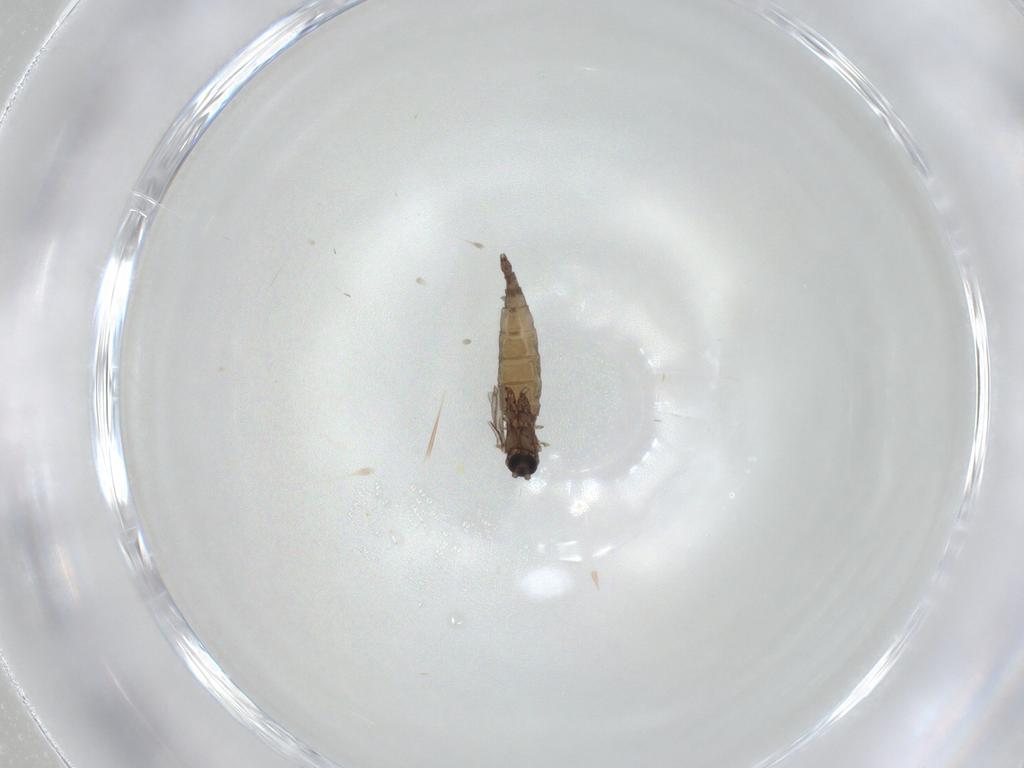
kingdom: Animalia
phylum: Arthropoda
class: Insecta
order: Diptera
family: Sciaridae
